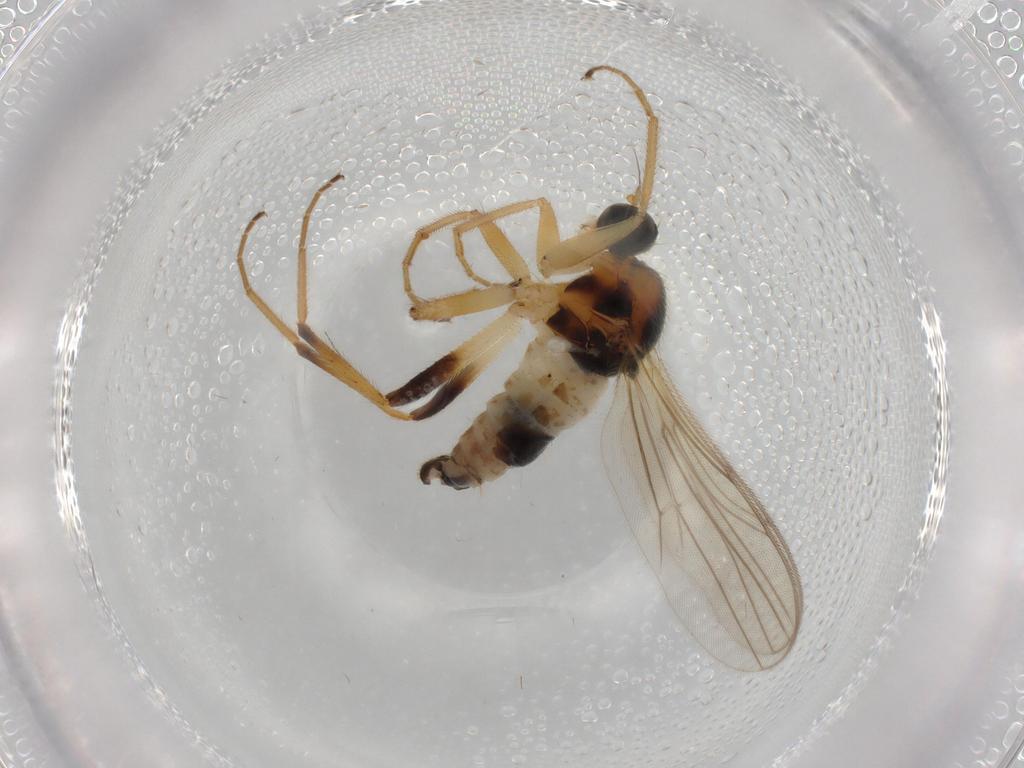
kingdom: Animalia
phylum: Arthropoda
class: Insecta
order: Diptera
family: Hybotidae
